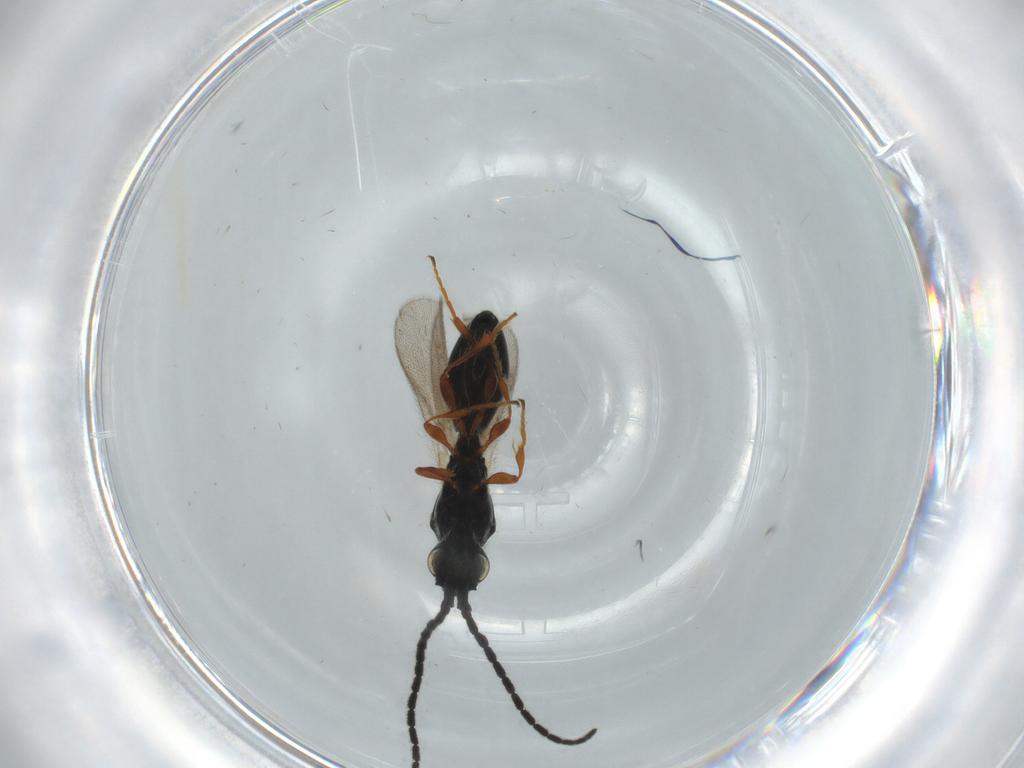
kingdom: Animalia
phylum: Arthropoda
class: Insecta
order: Hymenoptera
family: Diapriidae
